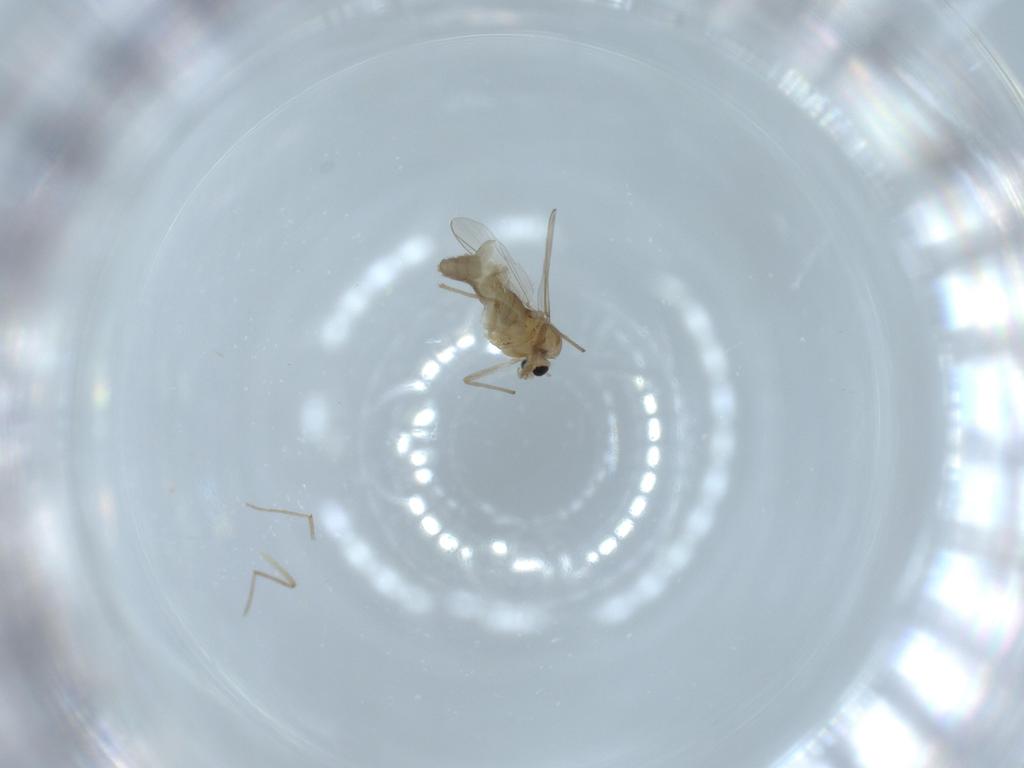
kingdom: Animalia
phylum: Arthropoda
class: Insecta
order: Diptera
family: Chironomidae
